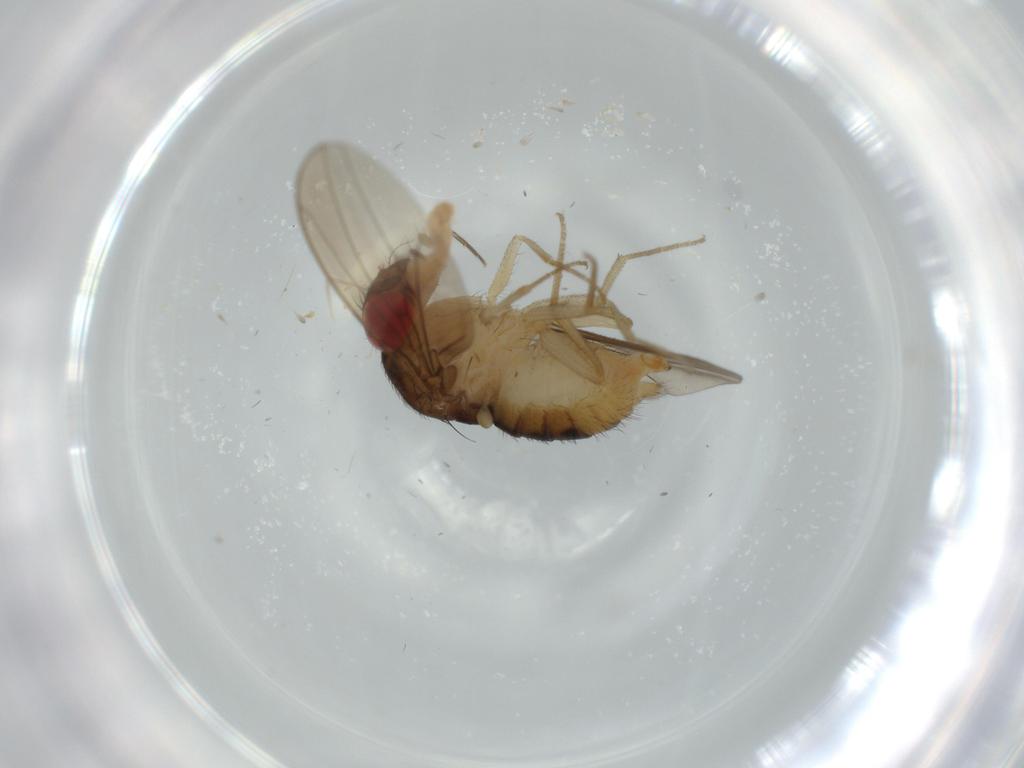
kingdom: Animalia
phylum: Arthropoda
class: Insecta
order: Diptera
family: Drosophilidae
